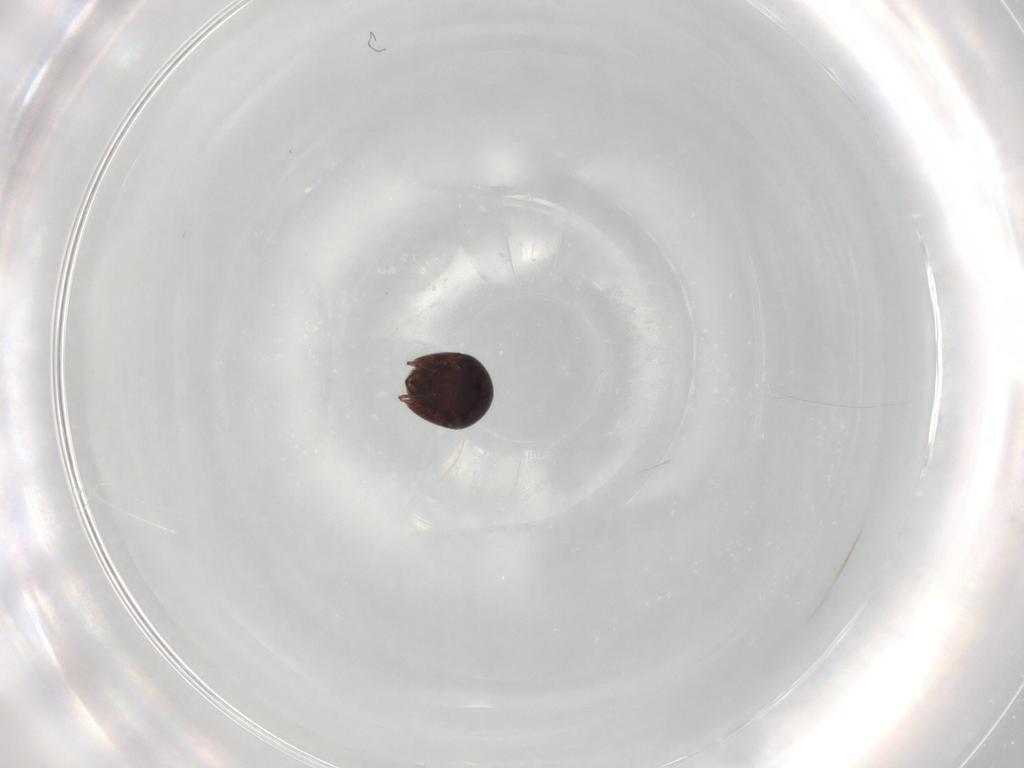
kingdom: Animalia
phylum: Arthropoda
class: Arachnida
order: Sarcoptiformes
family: Galumnidae
